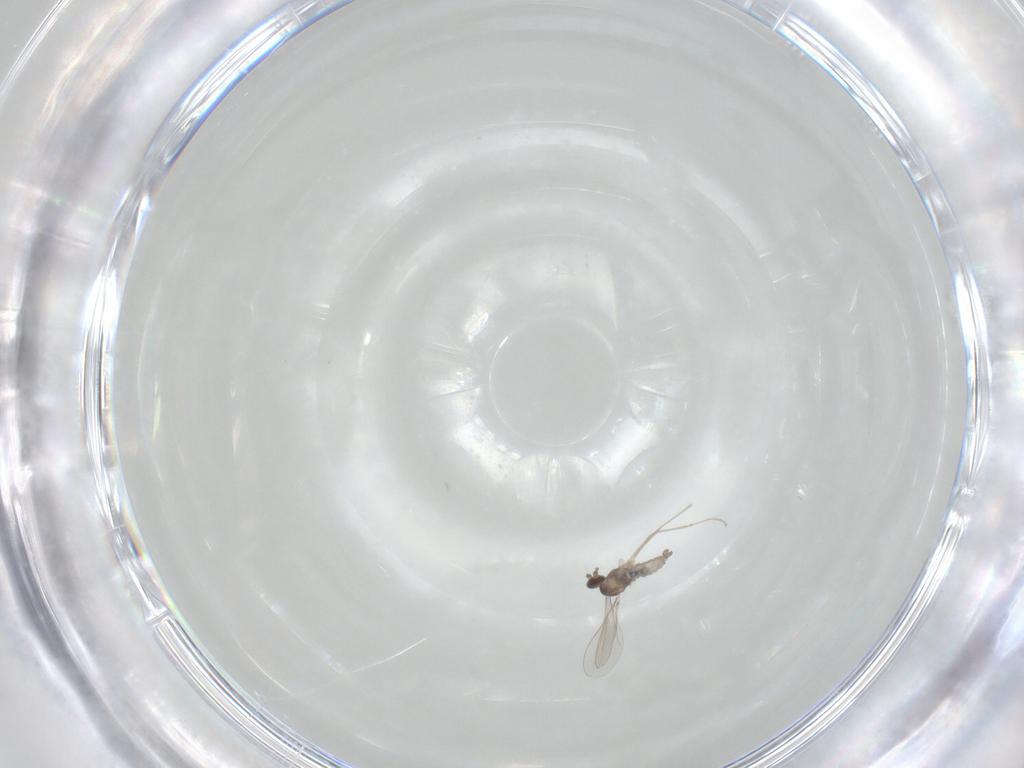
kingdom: Animalia
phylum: Arthropoda
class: Insecta
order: Diptera
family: Cecidomyiidae
